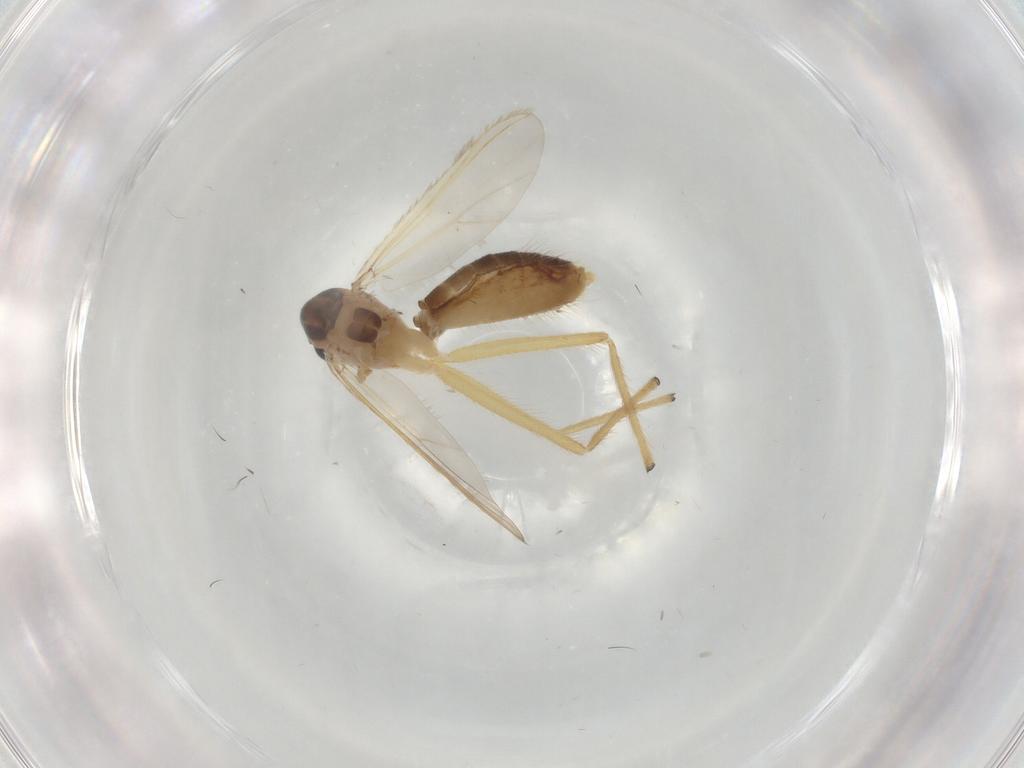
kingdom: Animalia
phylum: Arthropoda
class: Insecta
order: Diptera
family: Chironomidae
